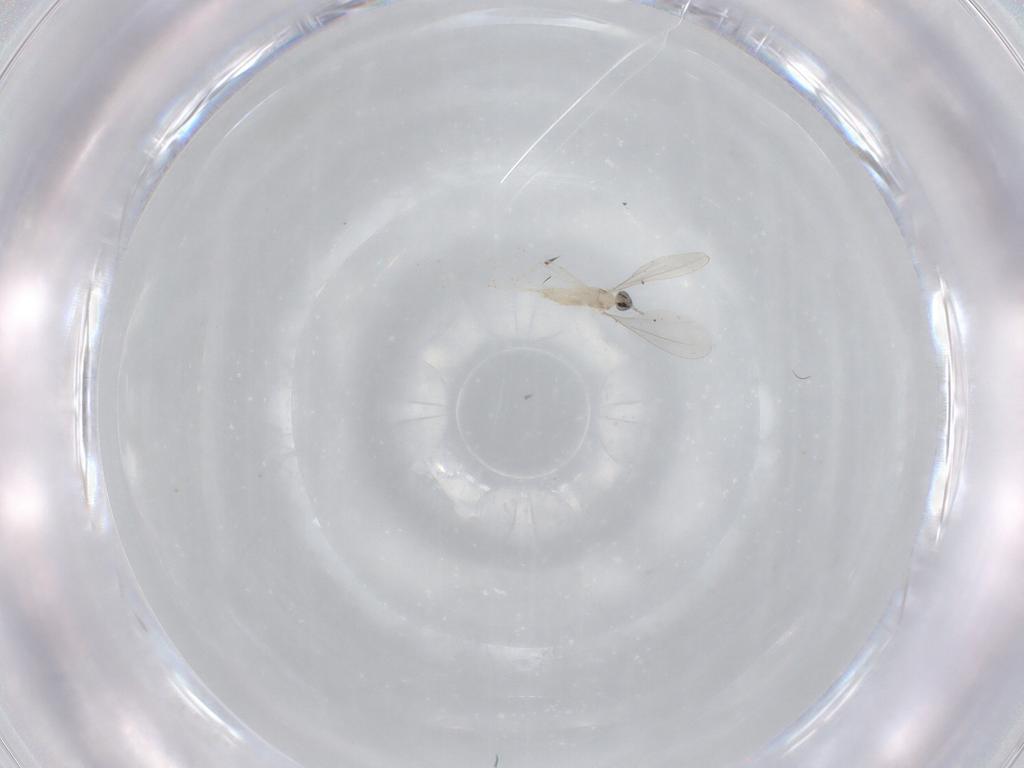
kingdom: Animalia
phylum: Arthropoda
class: Insecta
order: Diptera
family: Cecidomyiidae
